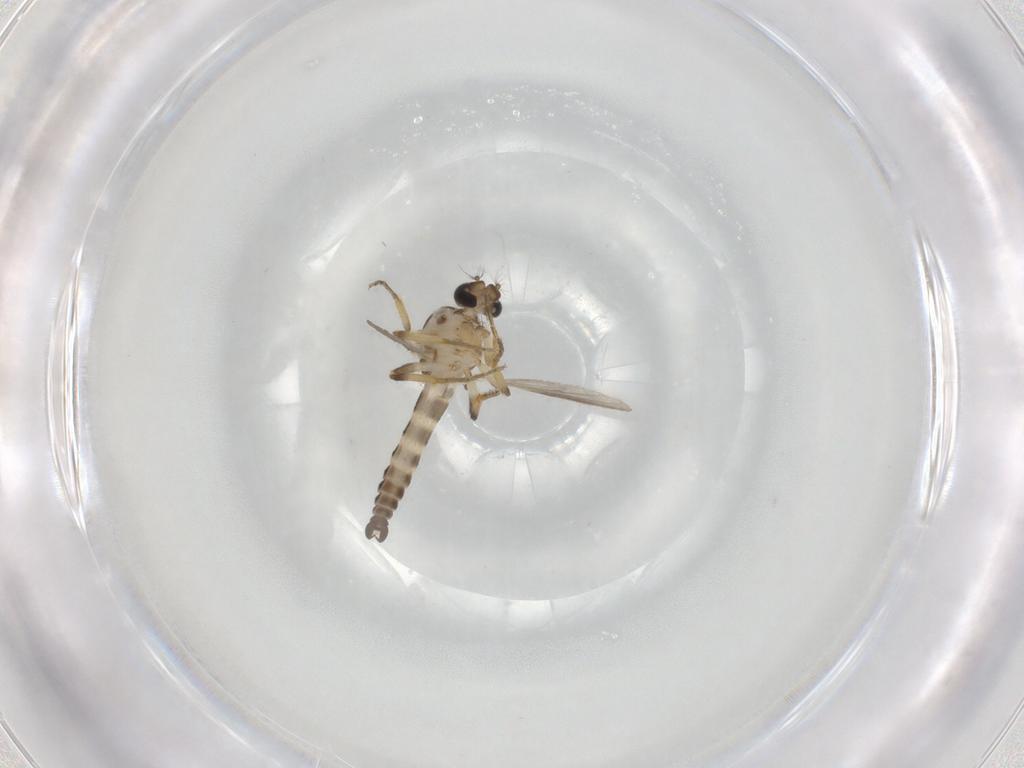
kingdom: Animalia
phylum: Arthropoda
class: Insecta
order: Diptera
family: Ceratopogonidae
